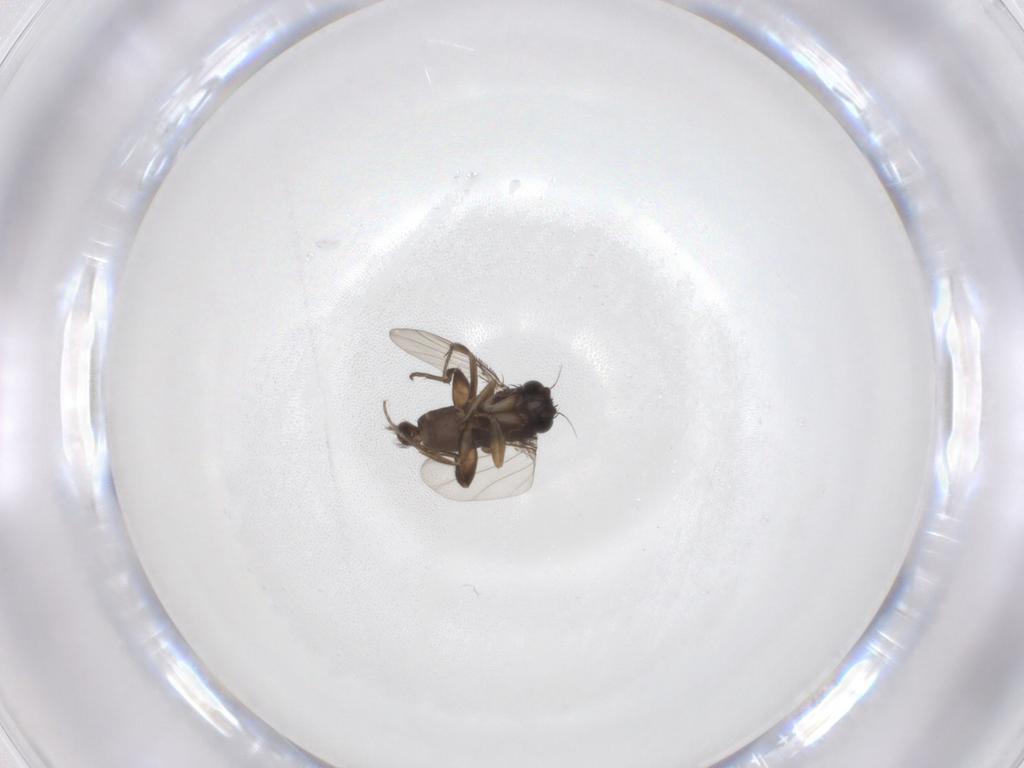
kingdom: Animalia
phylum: Arthropoda
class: Insecta
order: Diptera
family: Phoridae
